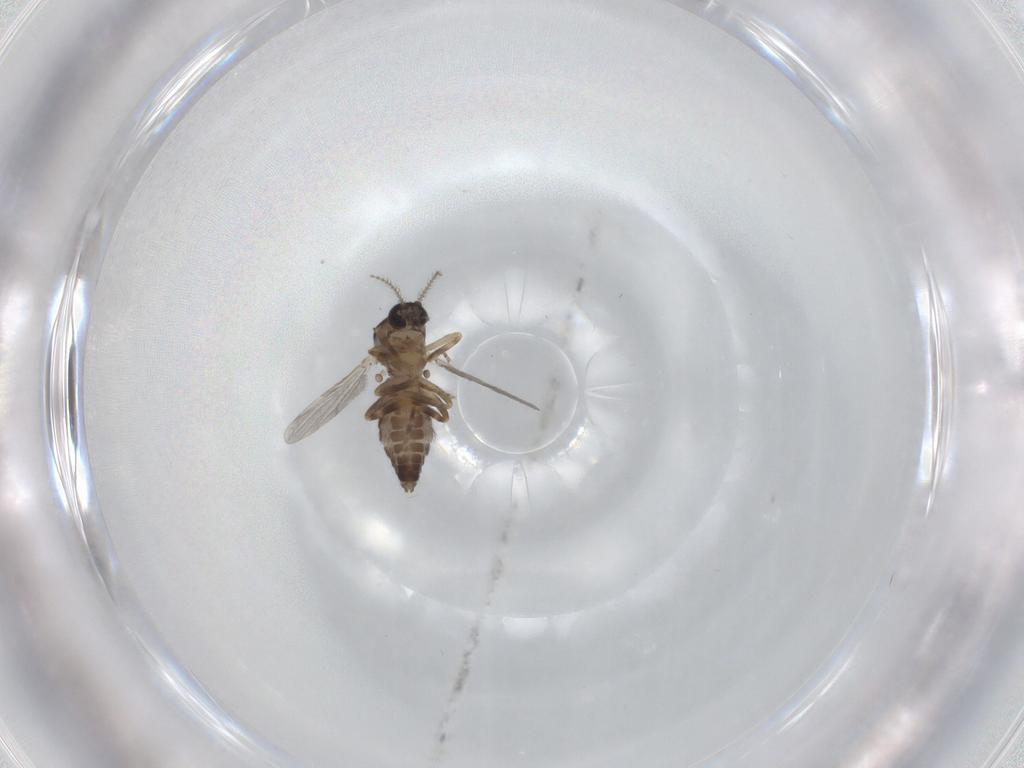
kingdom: Animalia
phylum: Arthropoda
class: Insecta
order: Diptera
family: Ceratopogonidae
